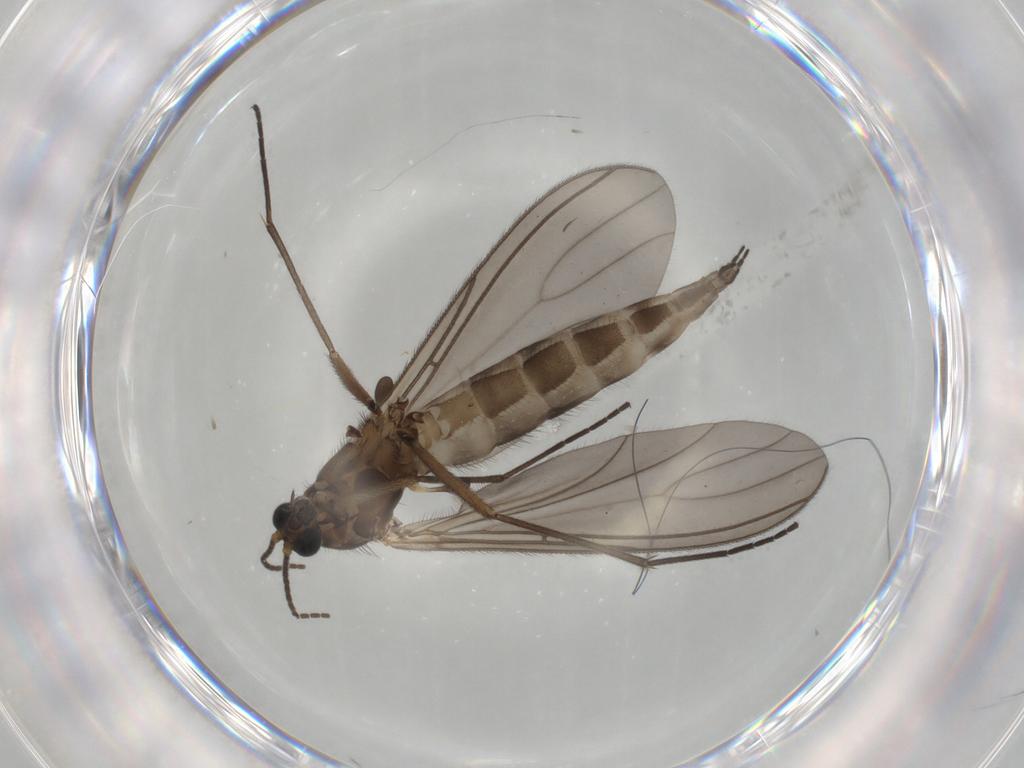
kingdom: Animalia
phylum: Arthropoda
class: Insecta
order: Diptera
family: Sciaridae
